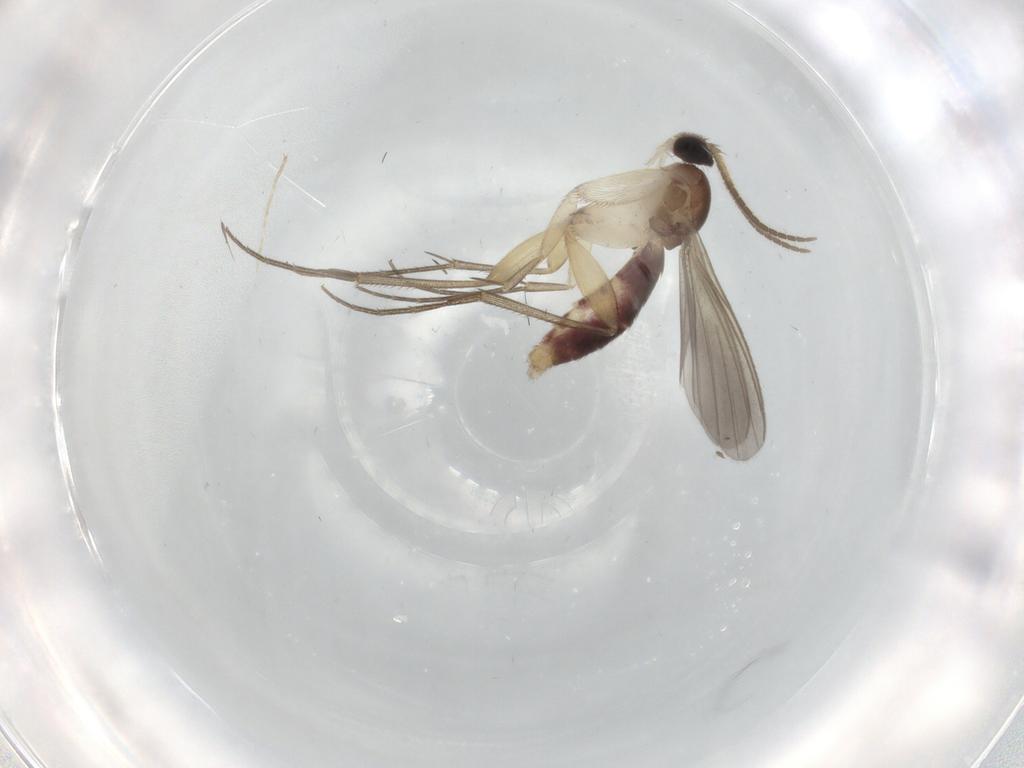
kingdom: Animalia
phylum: Arthropoda
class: Insecta
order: Diptera
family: Mycetophilidae
